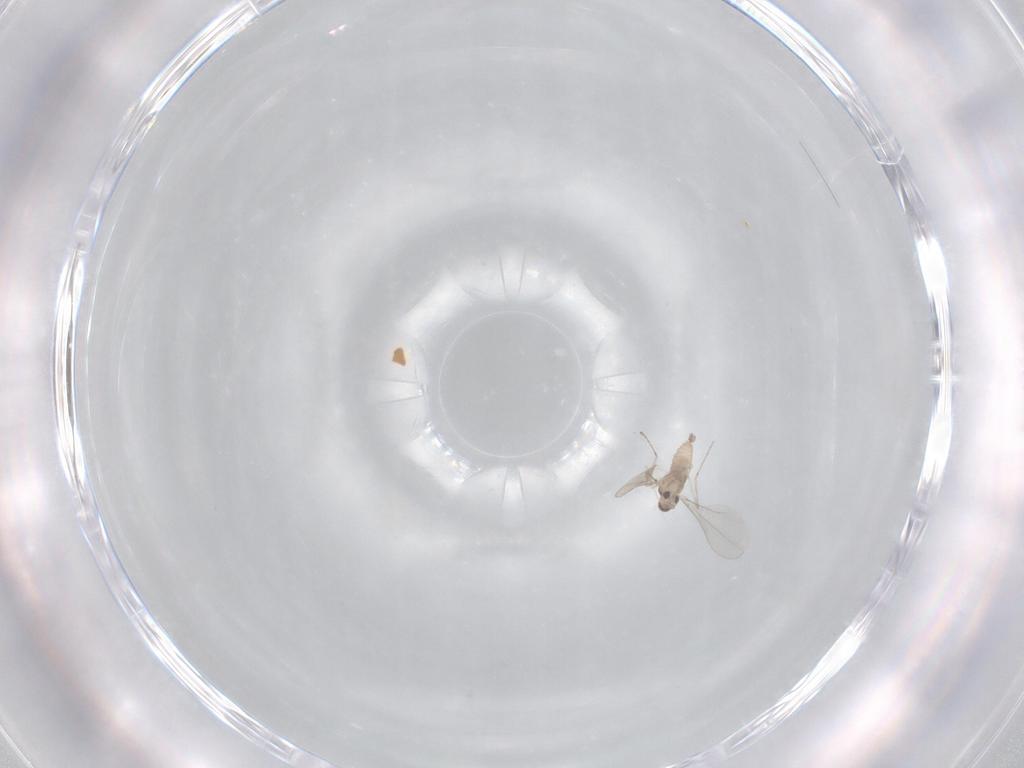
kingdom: Animalia
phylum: Arthropoda
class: Insecta
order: Diptera
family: Cecidomyiidae
